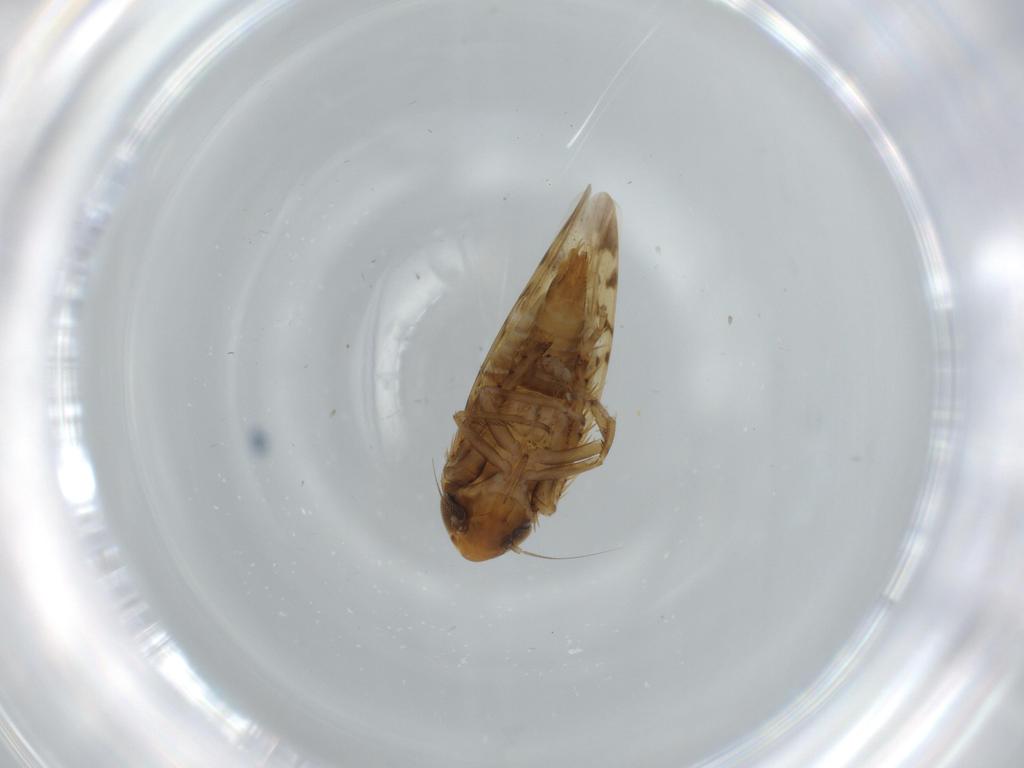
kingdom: Animalia
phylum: Arthropoda
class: Insecta
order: Hemiptera
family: Cicadellidae
